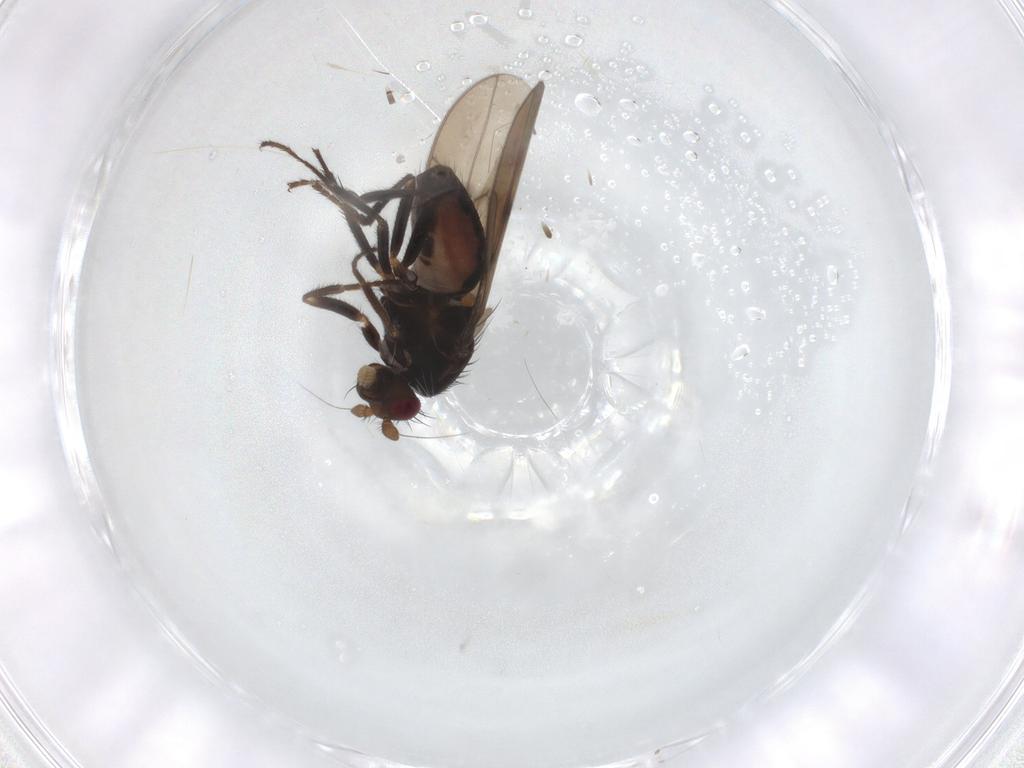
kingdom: Animalia
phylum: Arthropoda
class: Insecta
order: Diptera
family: Sphaeroceridae
